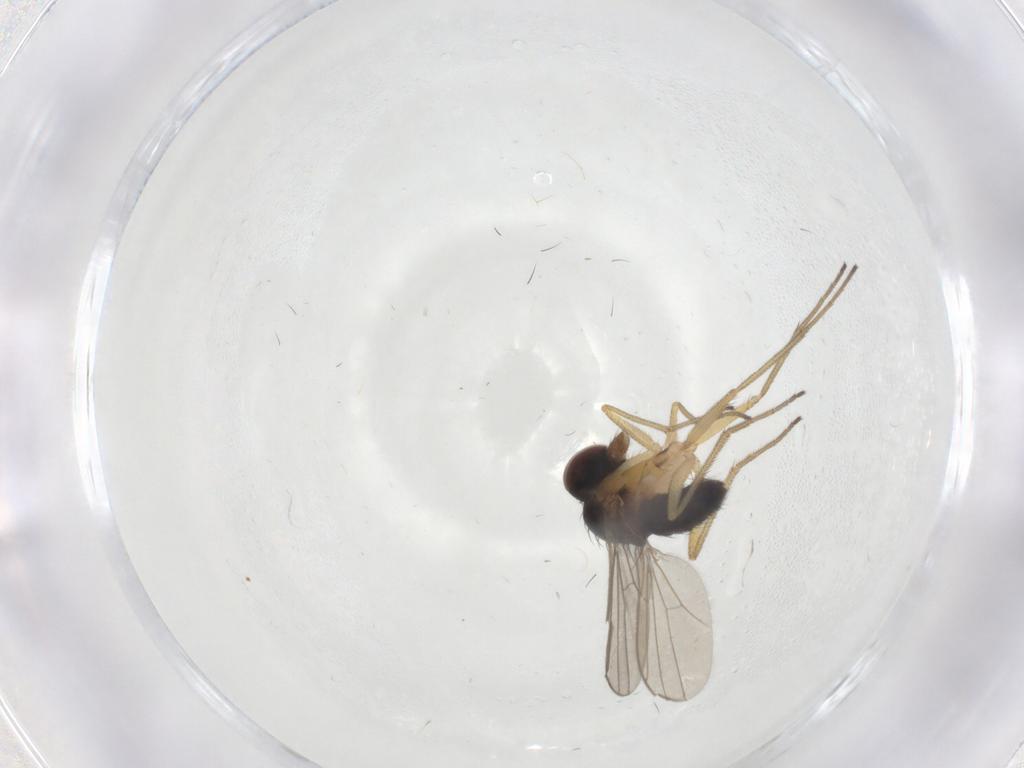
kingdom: Animalia
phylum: Arthropoda
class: Insecta
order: Diptera
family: Dolichopodidae
